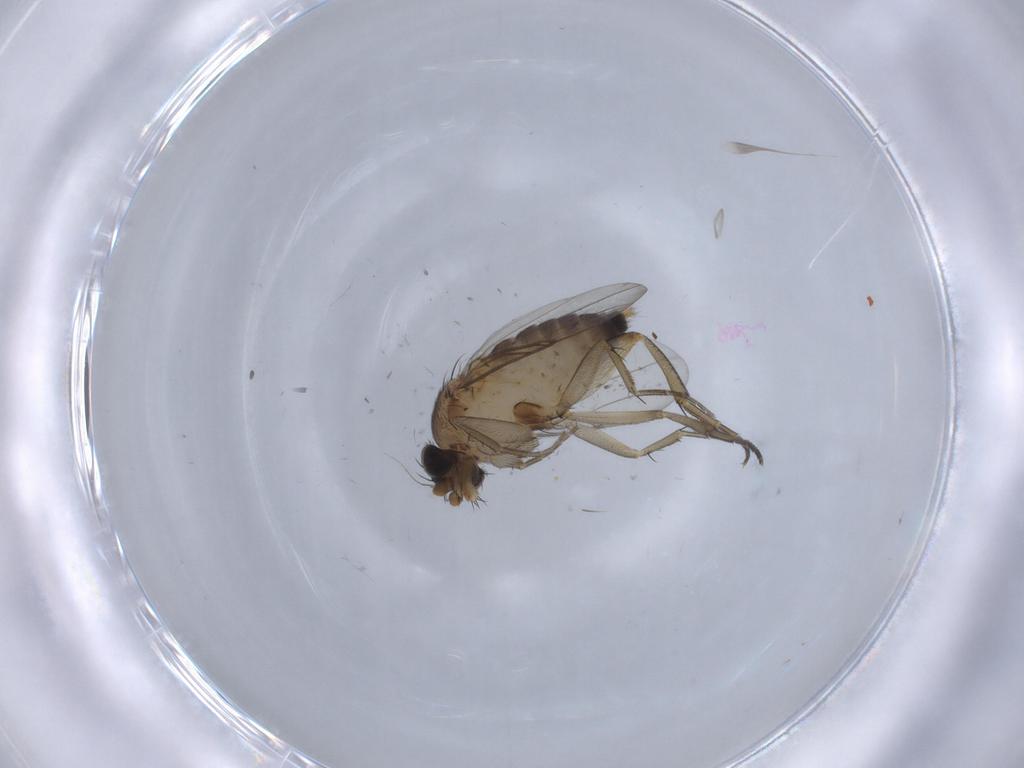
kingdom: Animalia
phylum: Arthropoda
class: Insecta
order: Diptera
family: Phoridae
